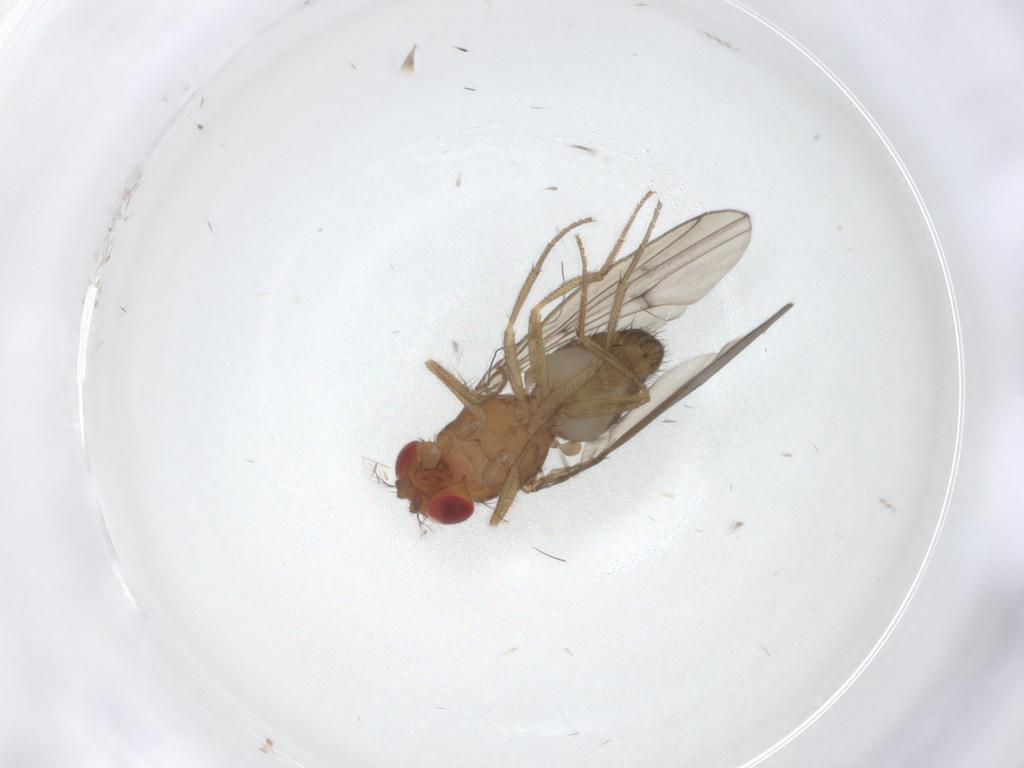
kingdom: Animalia
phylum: Arthropoda
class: Insecta
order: Diptera
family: Drosophilidae
